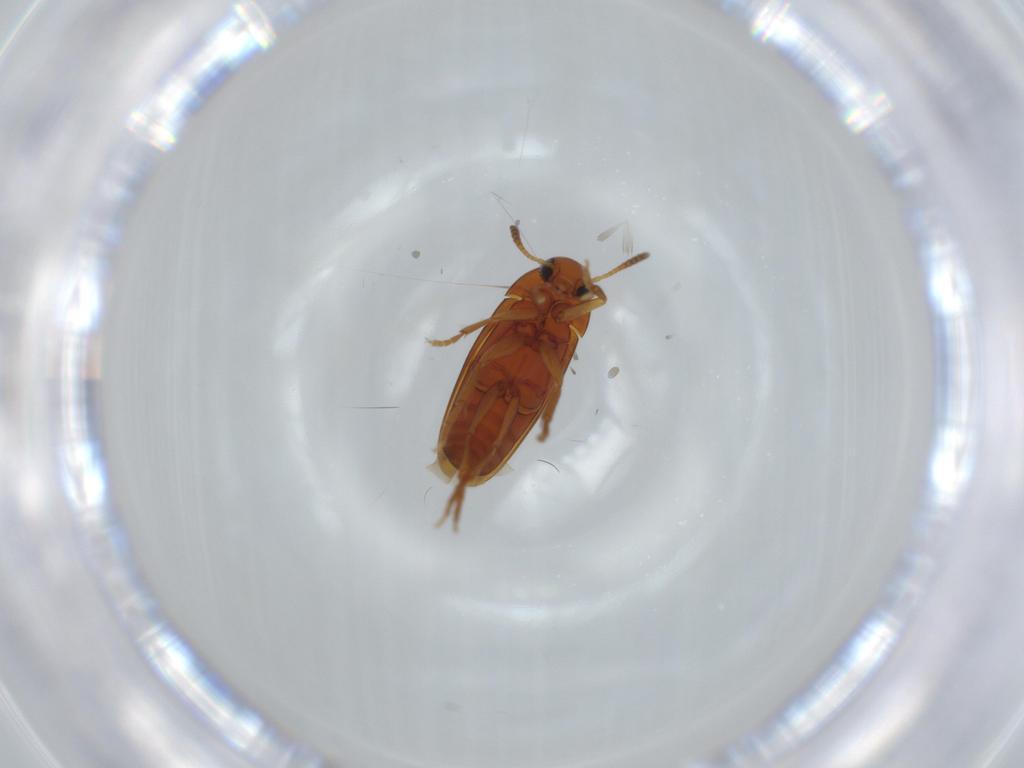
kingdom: Animalia
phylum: Arthropoda
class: Insecta
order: Coleoptera
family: Scraptiidae
